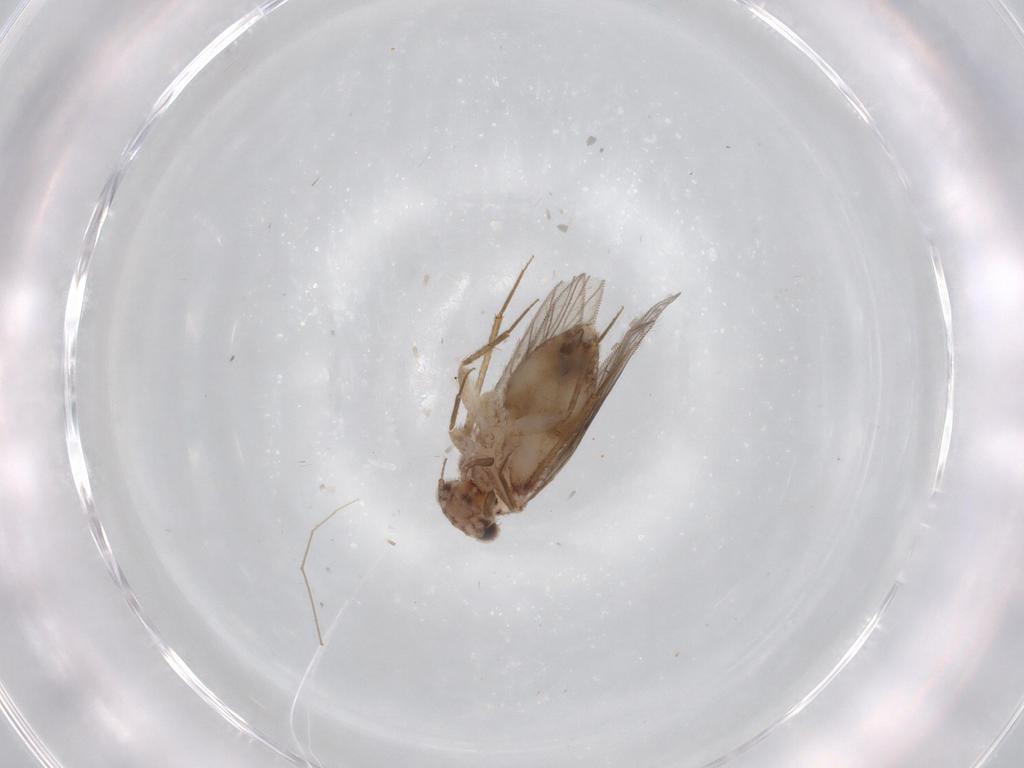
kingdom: Animalia
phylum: Arthropoda
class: Insecta
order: Psocodea
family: Lepidopsocidae
